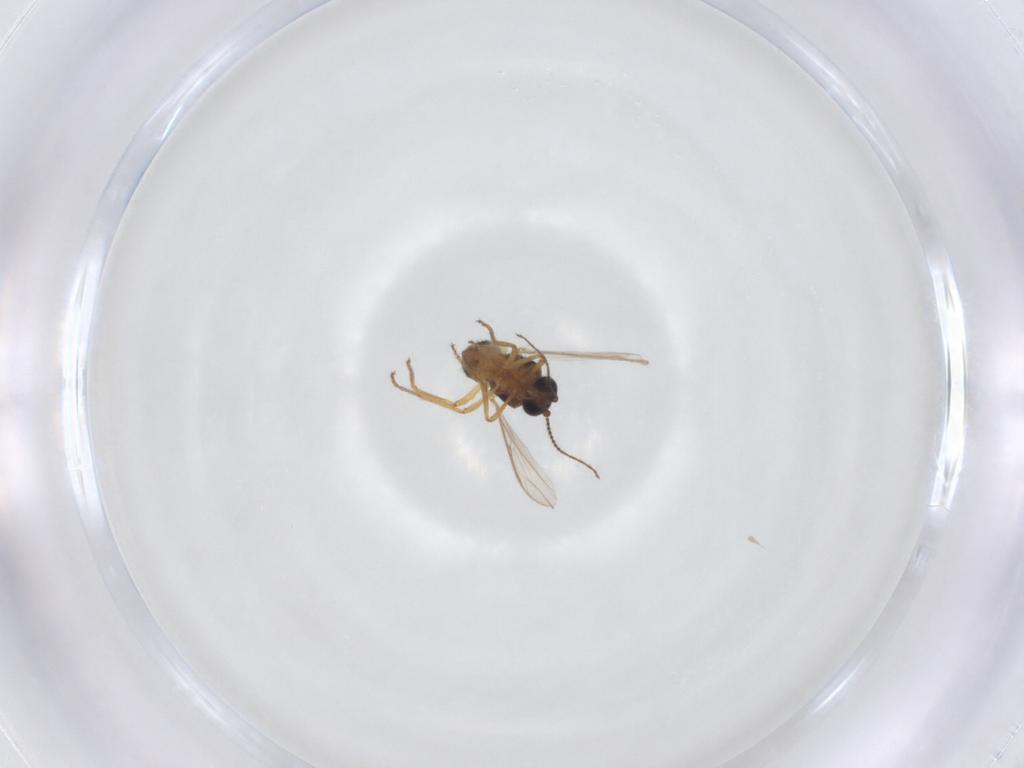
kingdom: Animalia
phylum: Arthropoda
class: Insecta
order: Diptera
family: Ceratopogonidae
